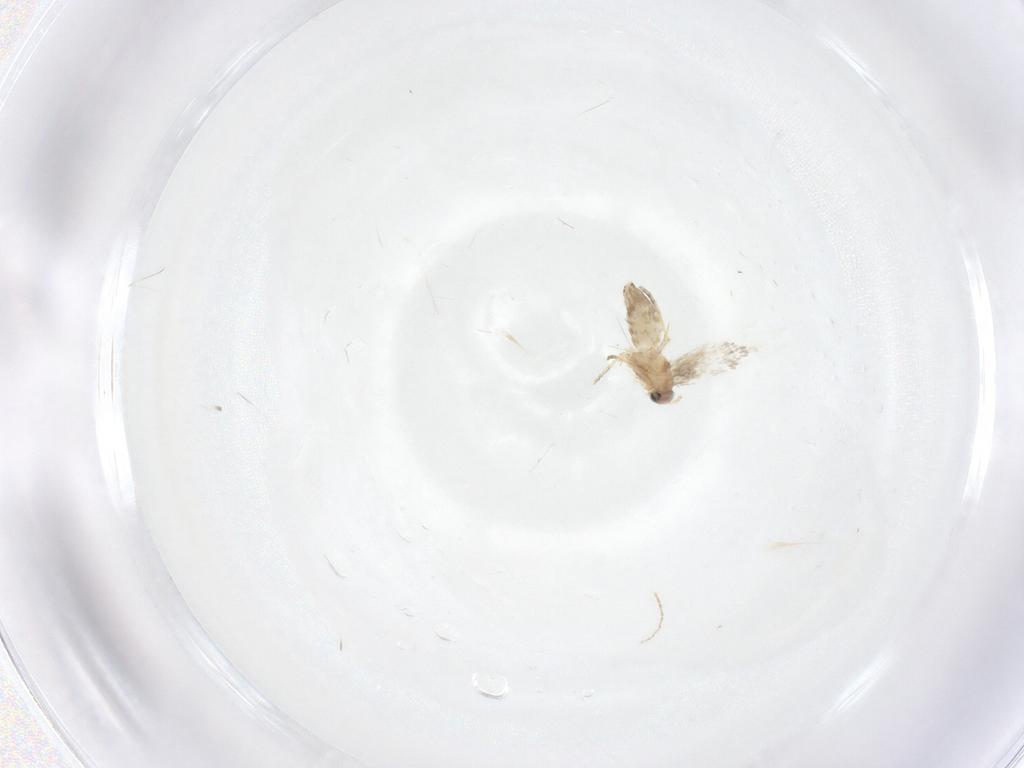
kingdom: Animalia
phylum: Arthropoda
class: Insecta
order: Lepidoptera
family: Nepticulidae
